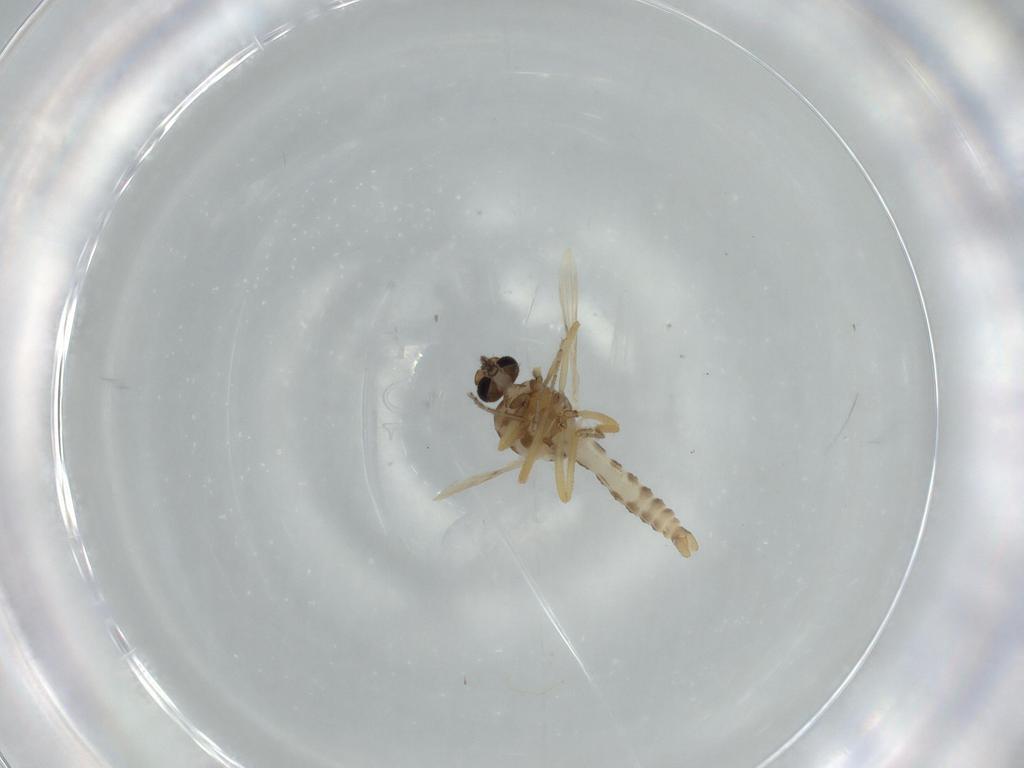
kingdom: Animalia
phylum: Arthropoda
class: Insecta
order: Diptera
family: Ceratopogonidae
